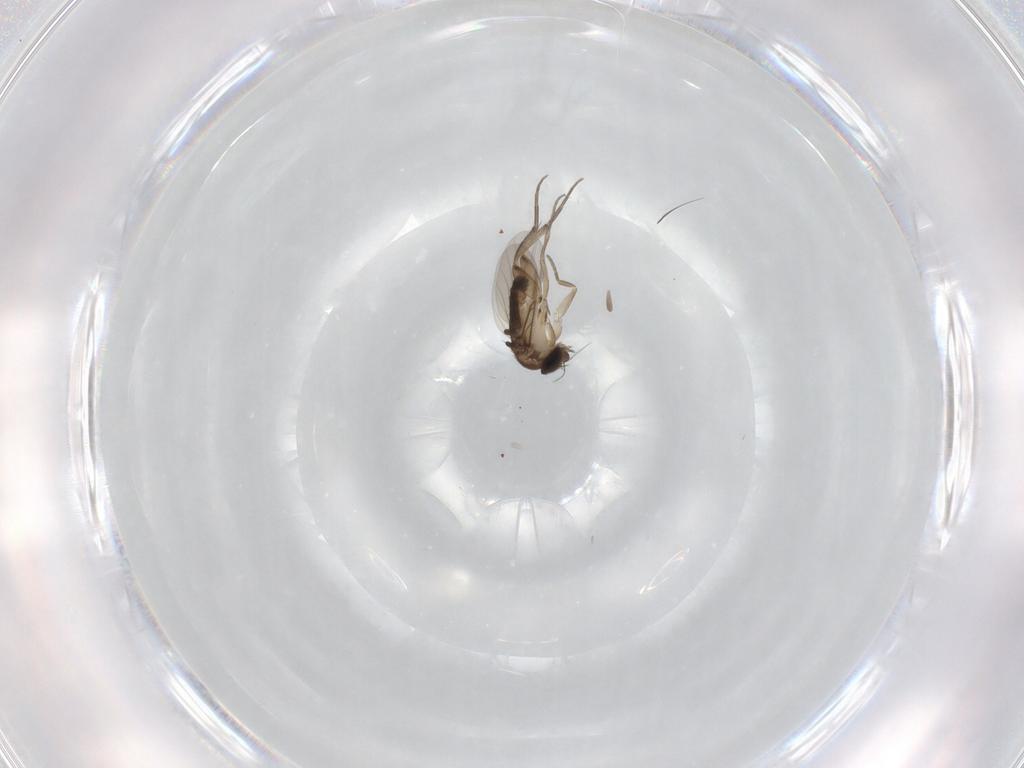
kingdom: Animalia
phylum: Arthropoda
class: Insecta
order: Diptera
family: Phoridae
